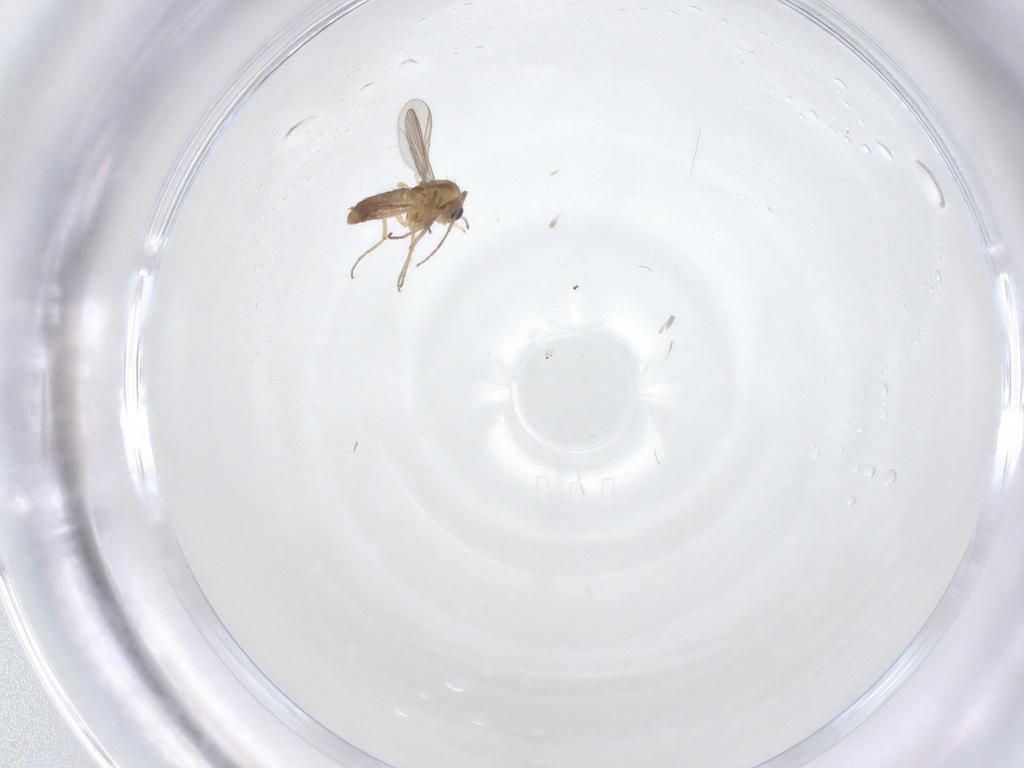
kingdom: Animalia
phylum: Arthropoda
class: Insecta
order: Diptera
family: Chironomidae
